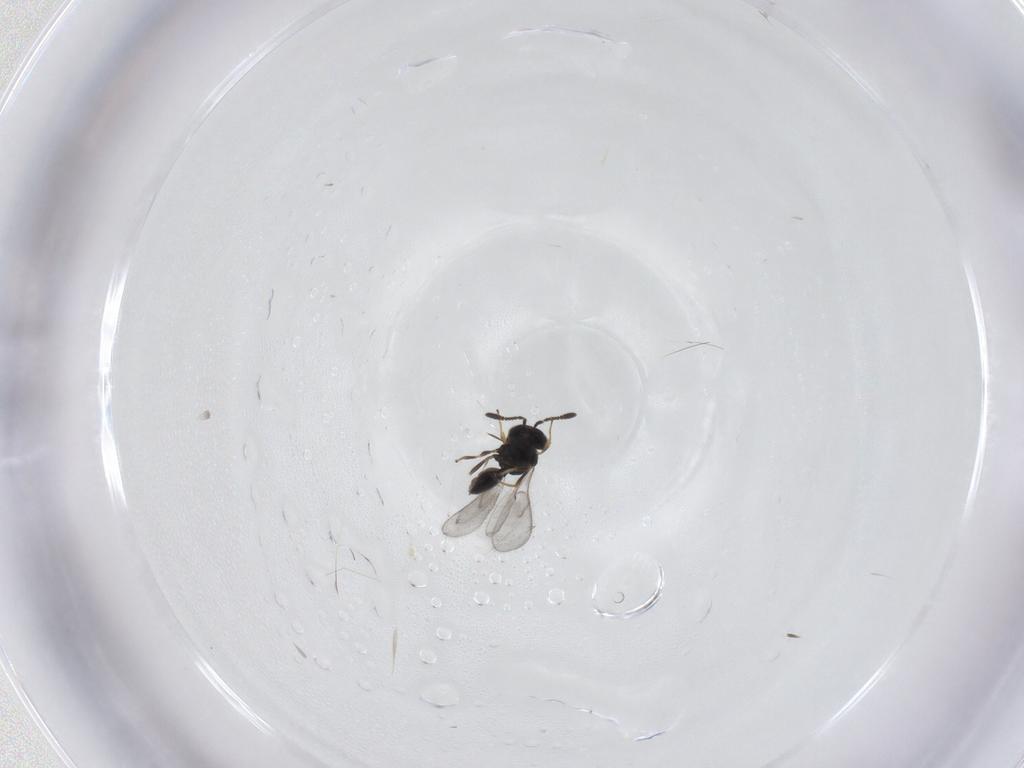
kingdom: Animalia
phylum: Arthropoda
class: Insecta
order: Hymenoptera
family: Scelionidae
